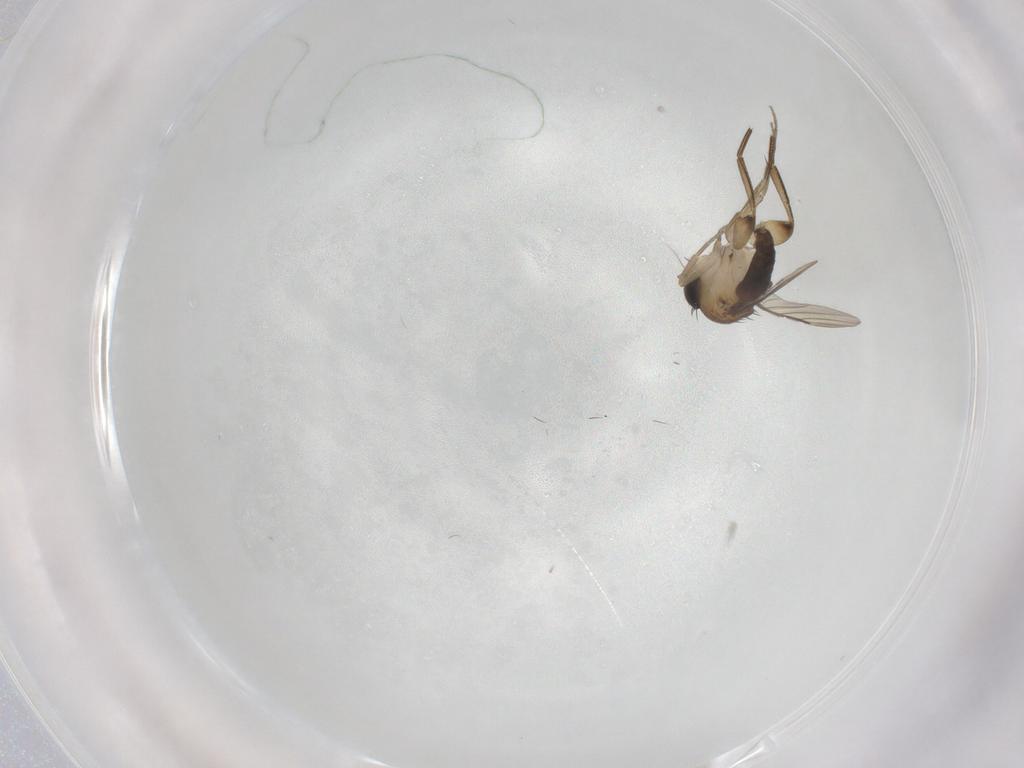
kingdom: Animalia
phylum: Arthropoda
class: Insecta
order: Diptera
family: Phoridae
